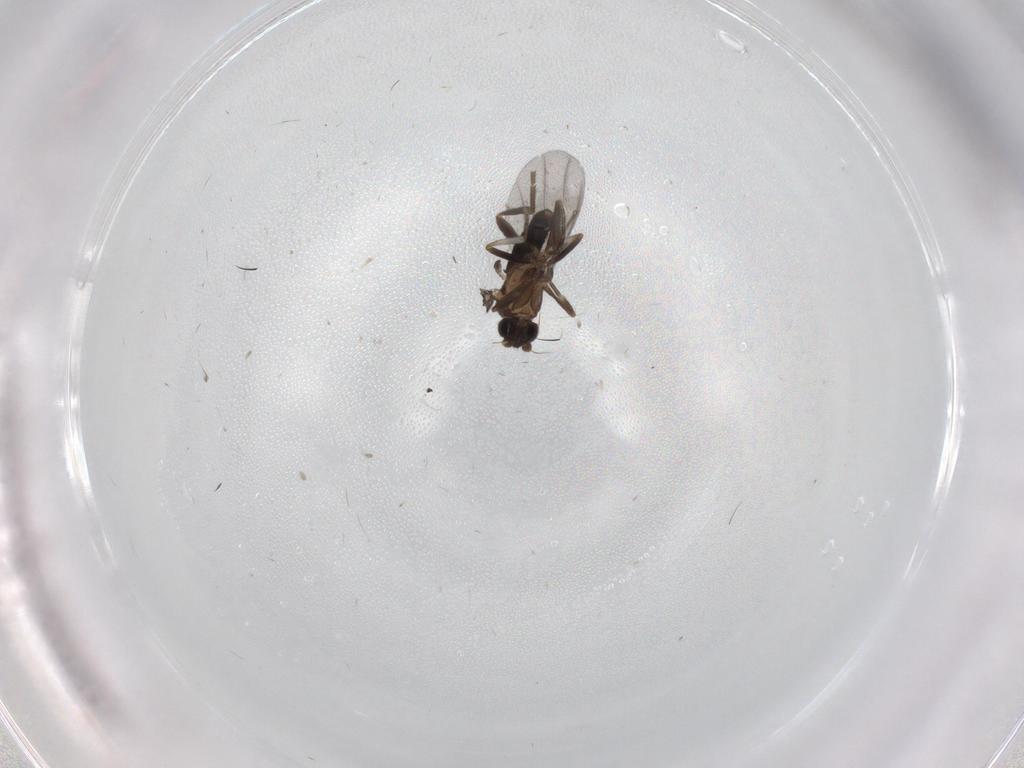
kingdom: Animalia
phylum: Arthropoda
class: Insecta
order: Diptera
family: Phoridae
